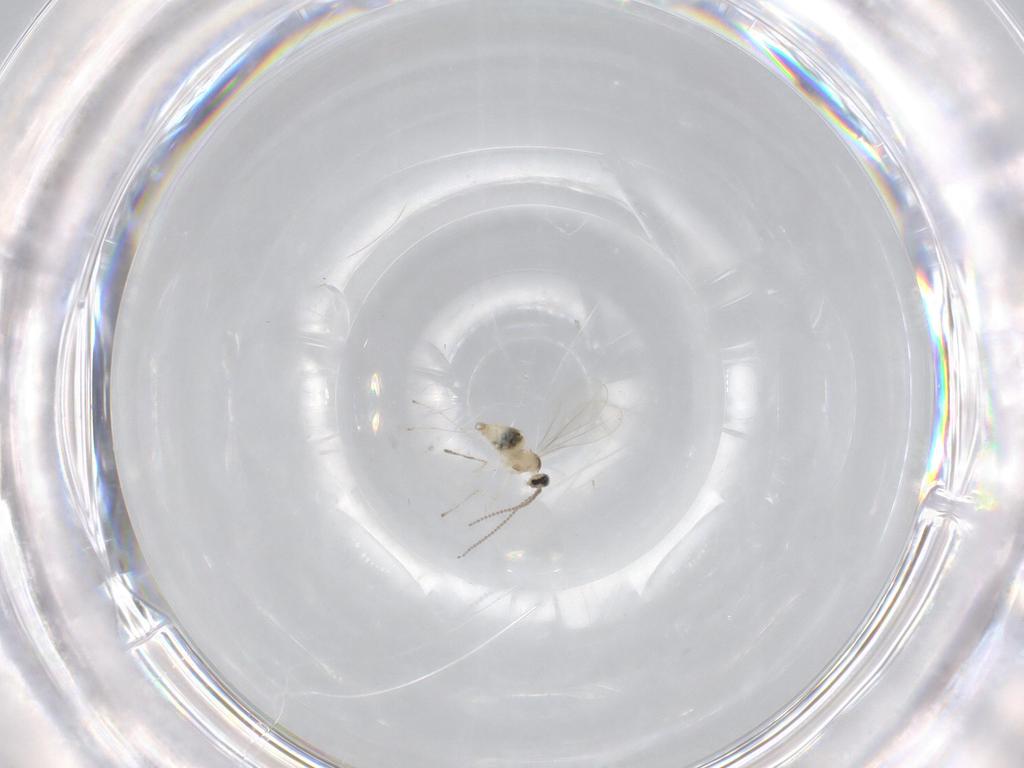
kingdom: Animalia
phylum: Arthropoda
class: Insecta
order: Diptera
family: Cecidomyiidae
